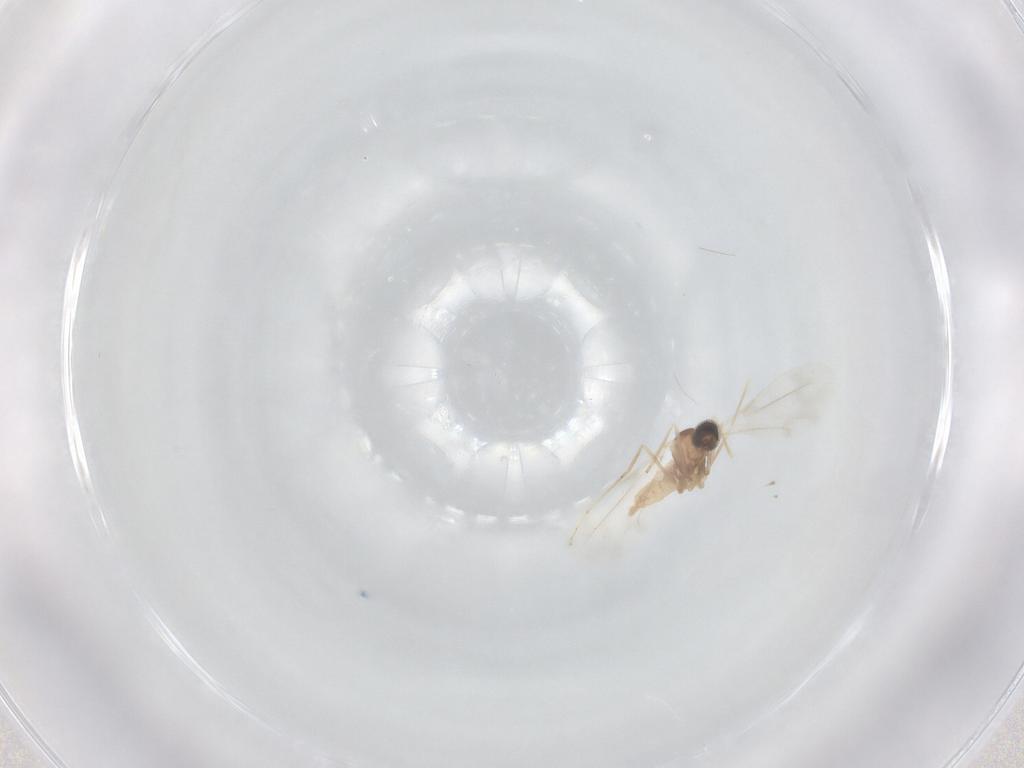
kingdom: Animalia
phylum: Arthropoda
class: Insecta
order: Diptera
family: Cecidomyiidae
